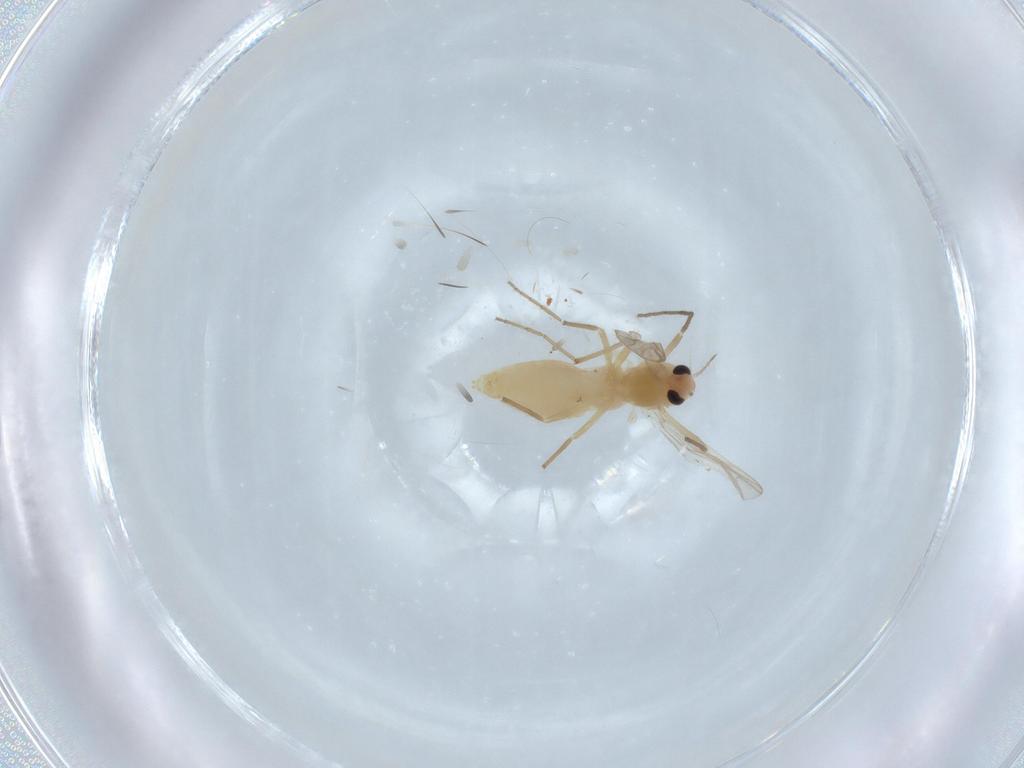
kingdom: Animalia
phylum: Arthropoda
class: Insecta
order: Diptera
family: Chironomidae
